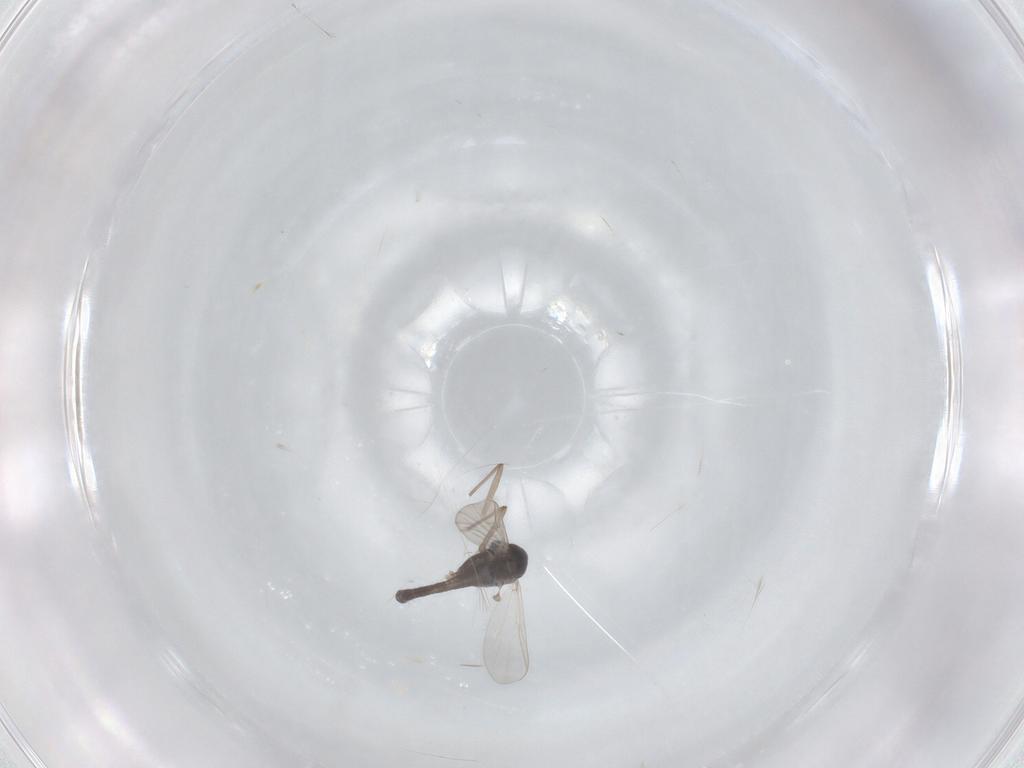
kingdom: Animalia
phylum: Arthropoda
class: Insecta
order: Diptera
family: Chironomidae
